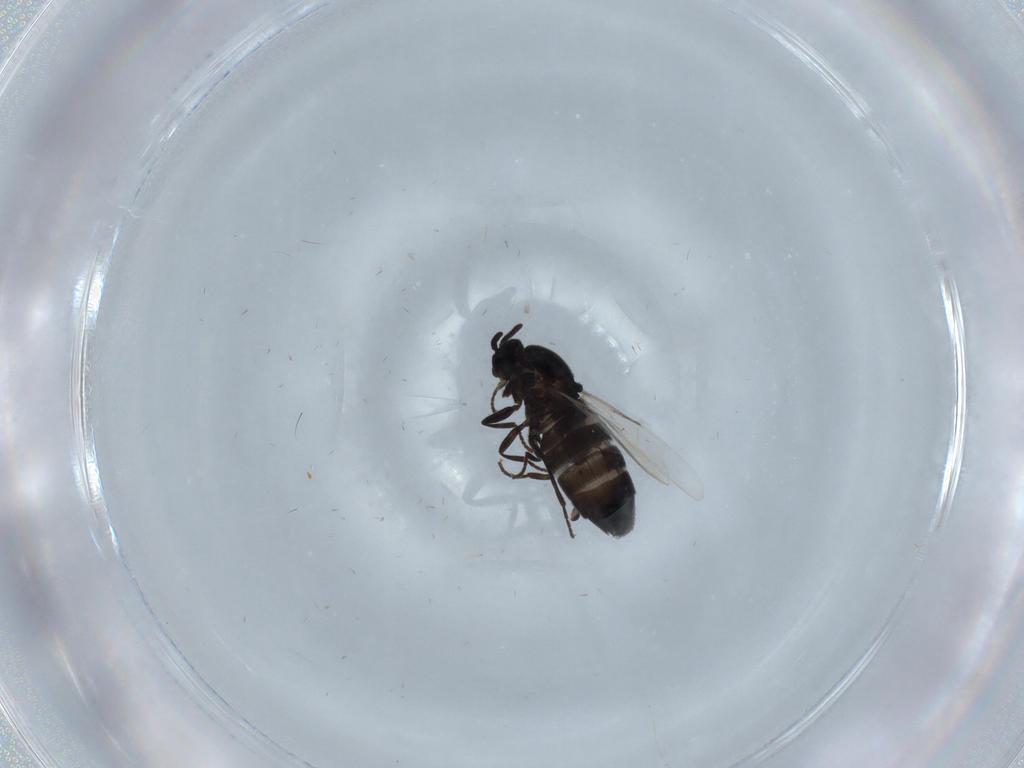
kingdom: Animalia
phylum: Arthropoda
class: Insecta
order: Diptera
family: Scatopsidae
